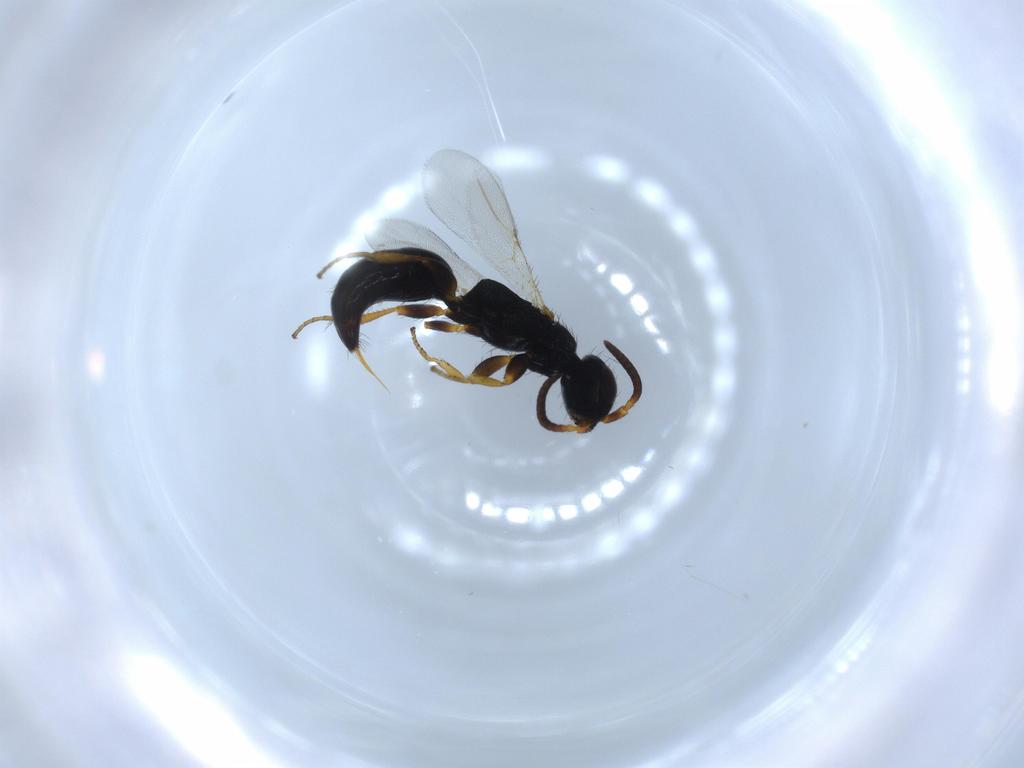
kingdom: Animalia
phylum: Arthropoda
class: Insecta
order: Hymenoptera
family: Bethylidae
